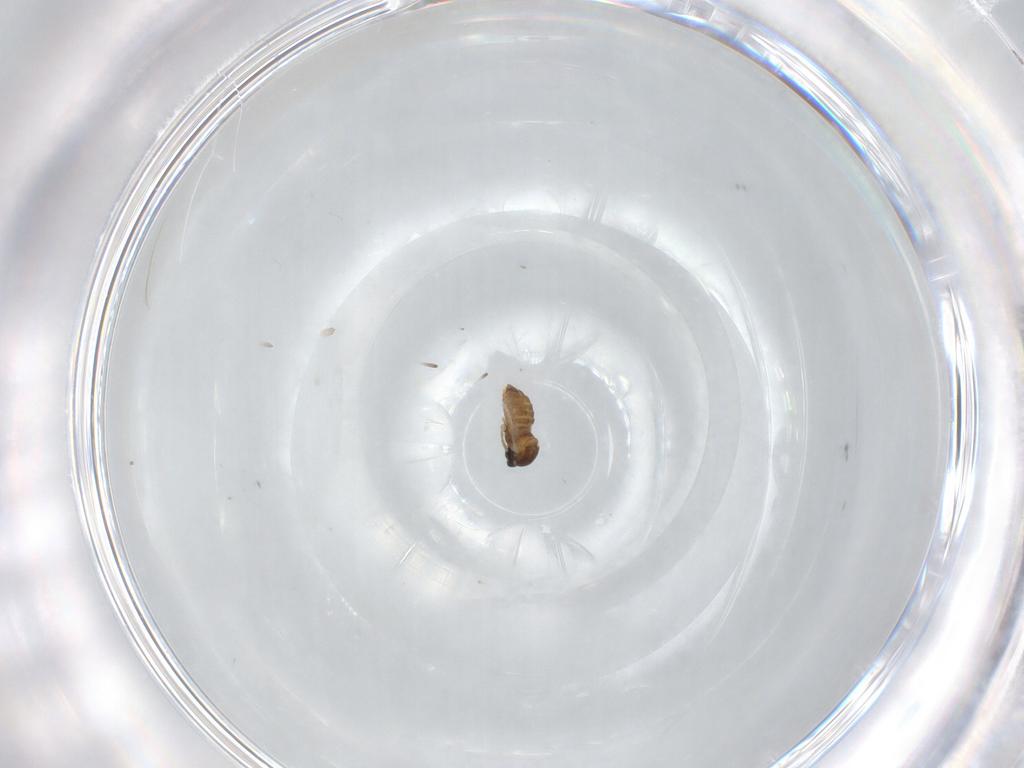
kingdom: Animalia
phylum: Arthropoda
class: Insecta
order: Diptera
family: Cecidomyiidae
